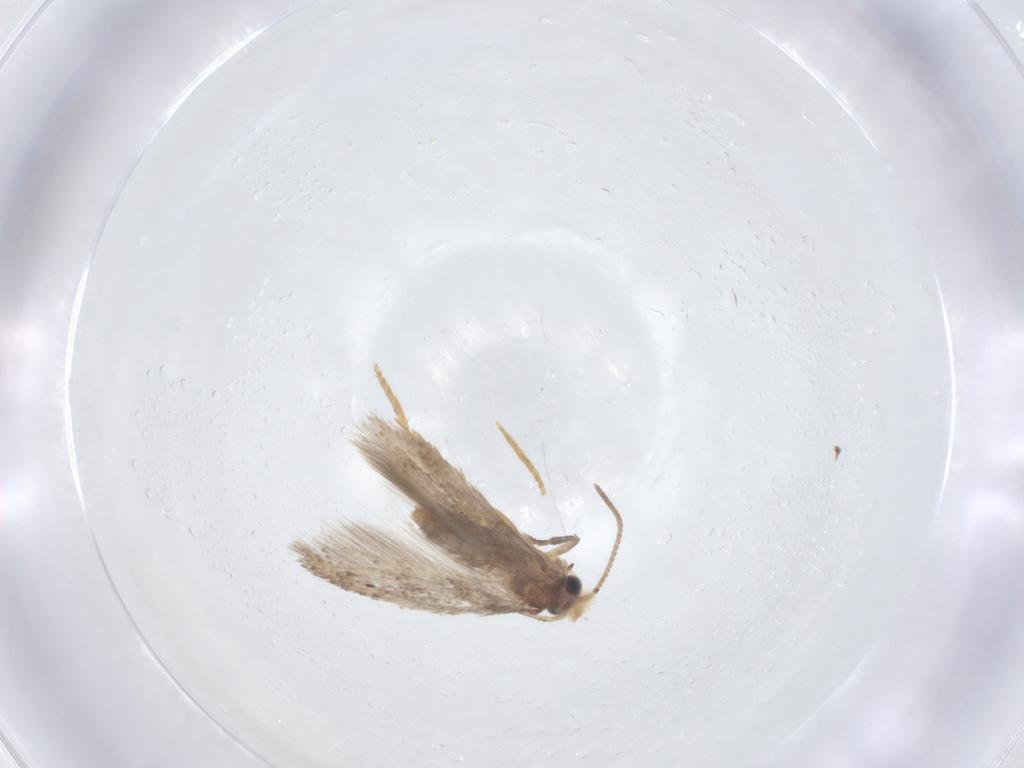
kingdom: Animalia
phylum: Arthropoda
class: Insecta
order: Lepidoptera
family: Nepticulidae
